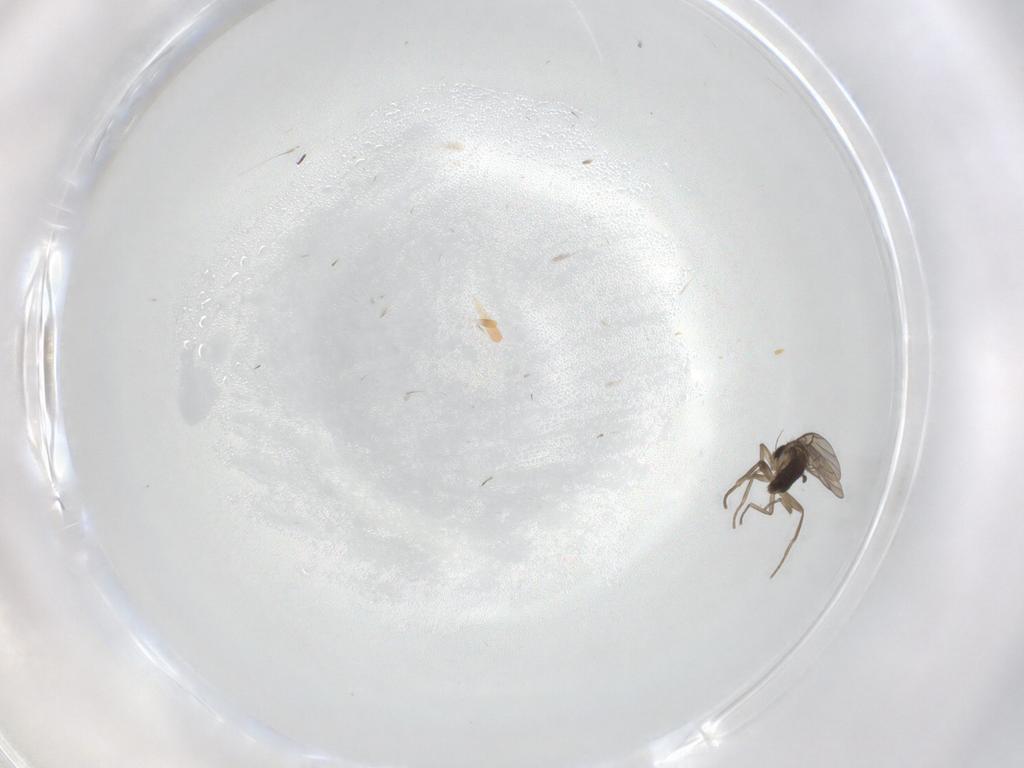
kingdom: Animalia
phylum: Arthropoda
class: Insecta
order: Diptera
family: Phoridae
